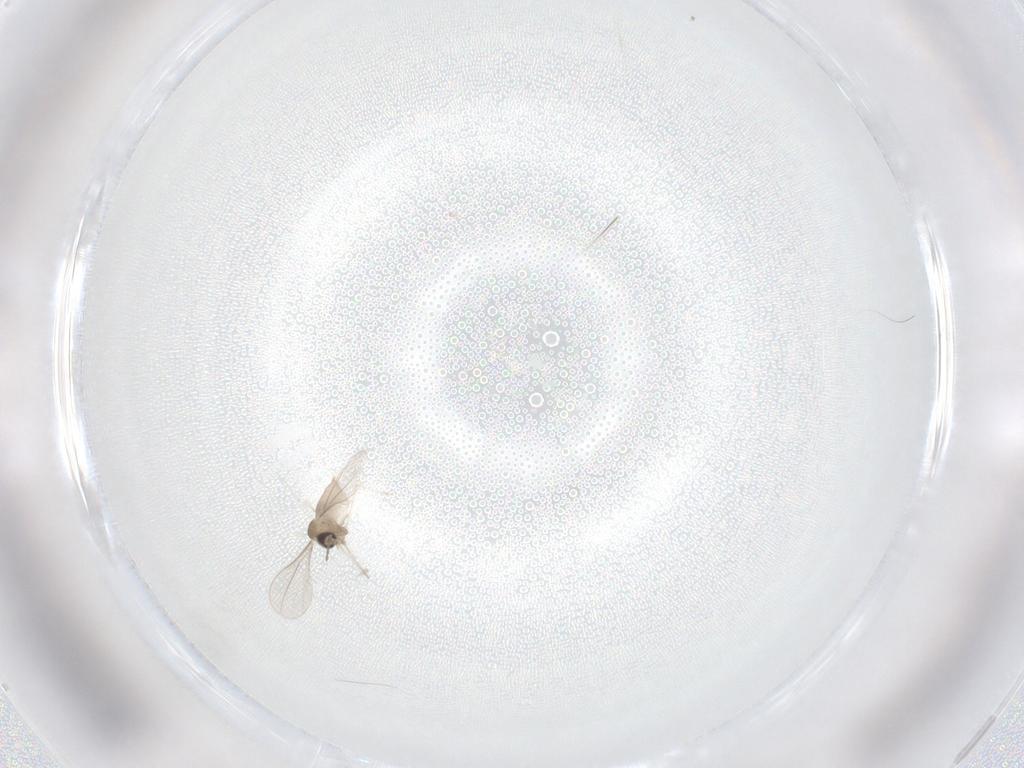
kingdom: Animalia
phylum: Arthropoda
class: Insecta
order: Diptera
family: Cecidomyiidae
